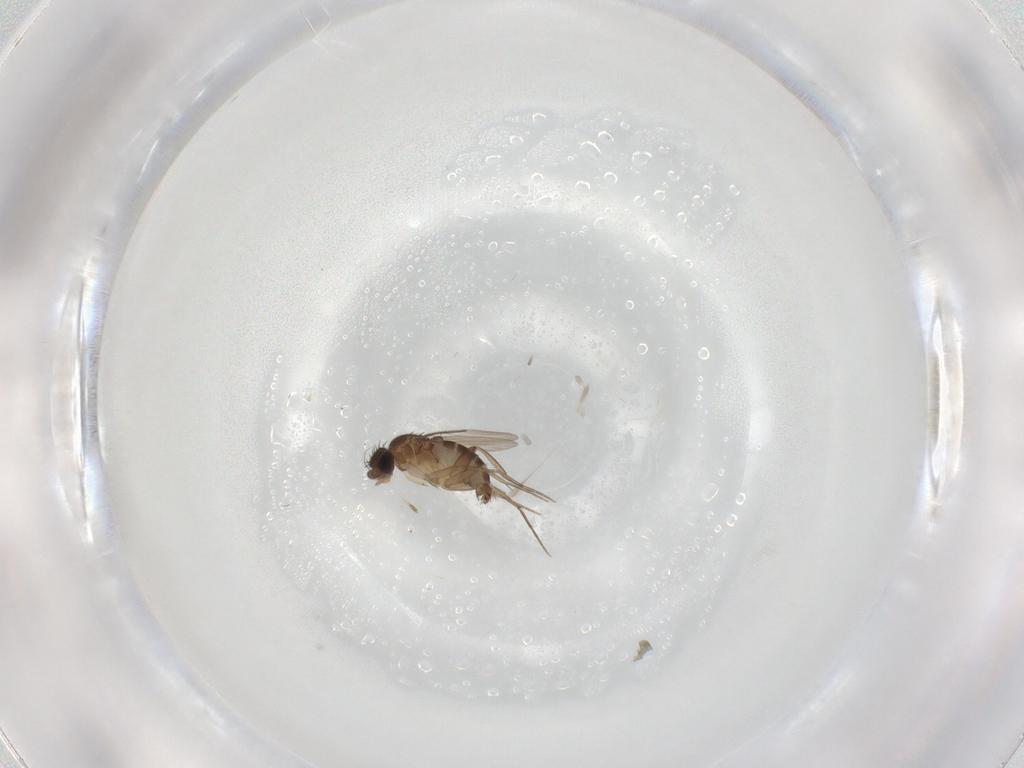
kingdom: Animalia
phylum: Arthropoda
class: Insecta
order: Diptera
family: Phoridae
